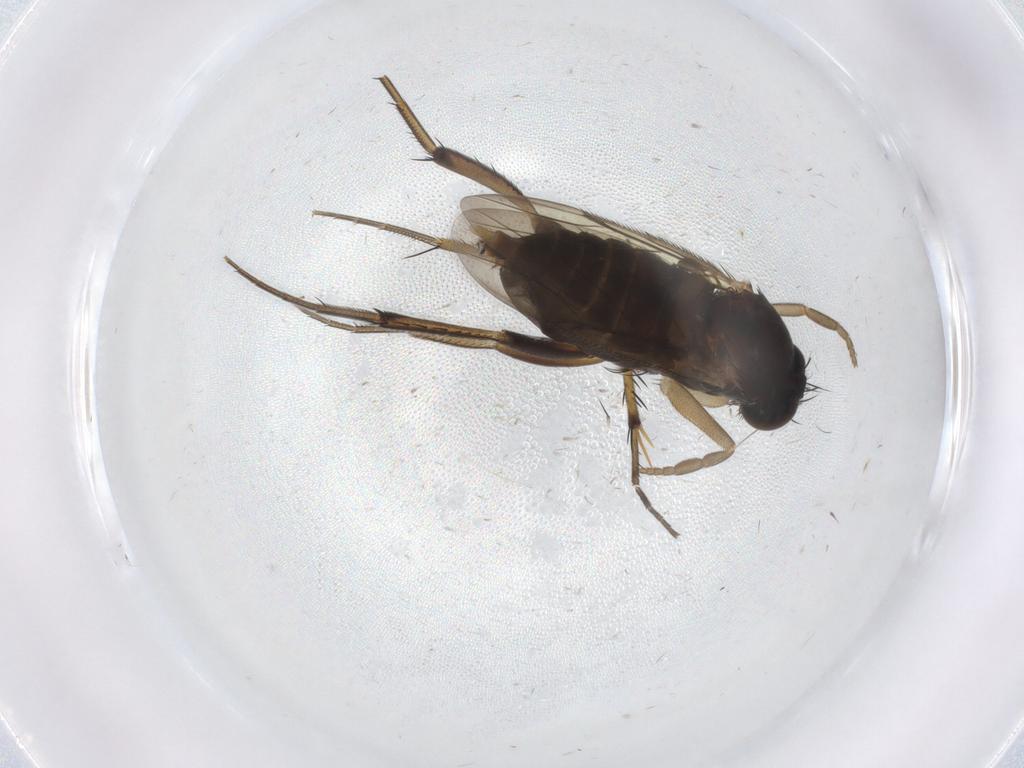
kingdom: Animalia
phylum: Arthropoda
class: Insecta
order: Diptera
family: Phoridae
